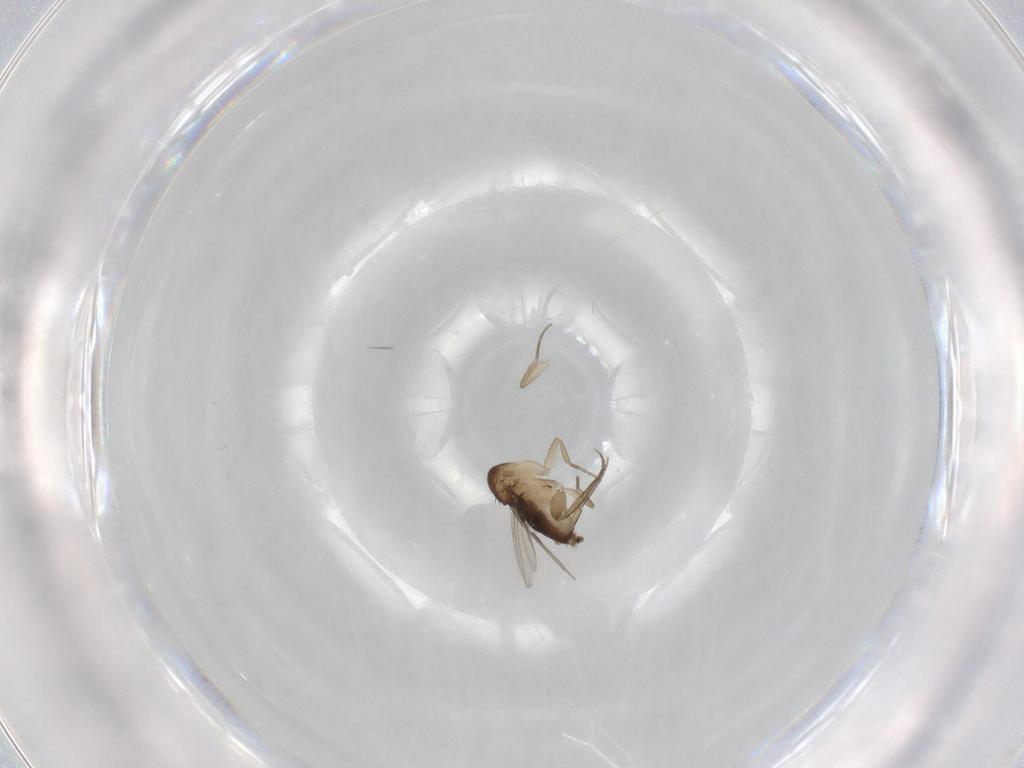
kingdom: Animalia
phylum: Arthropoda
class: Insecta
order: Diptera
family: Phoridae
